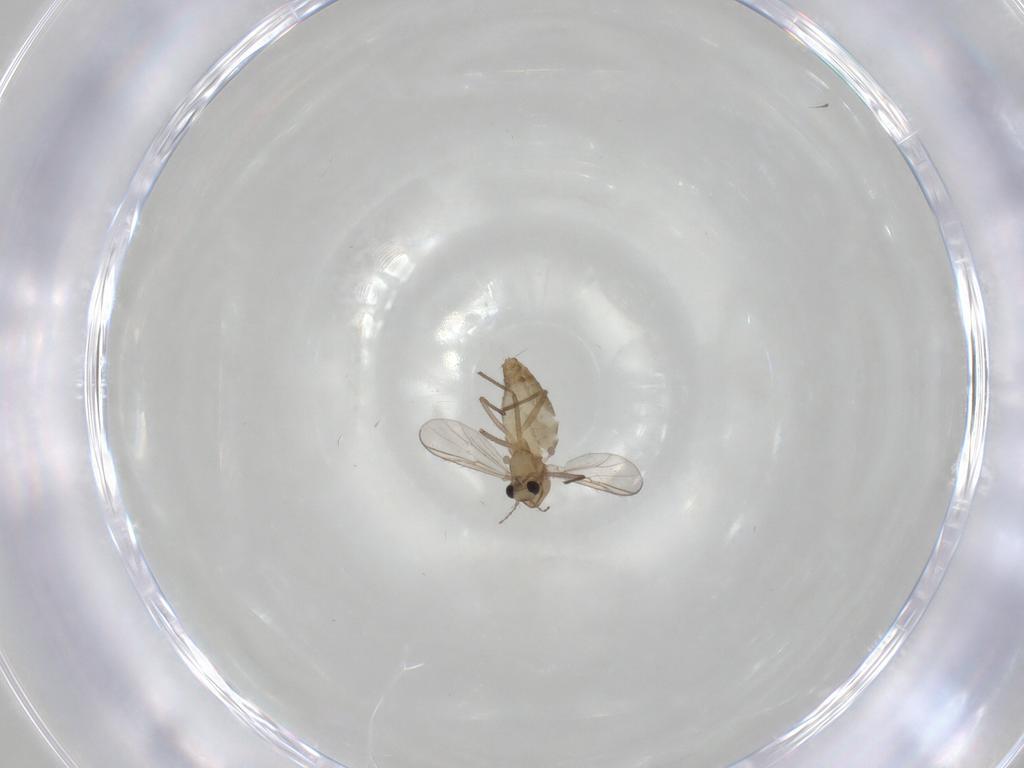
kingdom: Animalia
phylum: Arthropoda
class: Insecta
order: Diptera
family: Chironomidae
